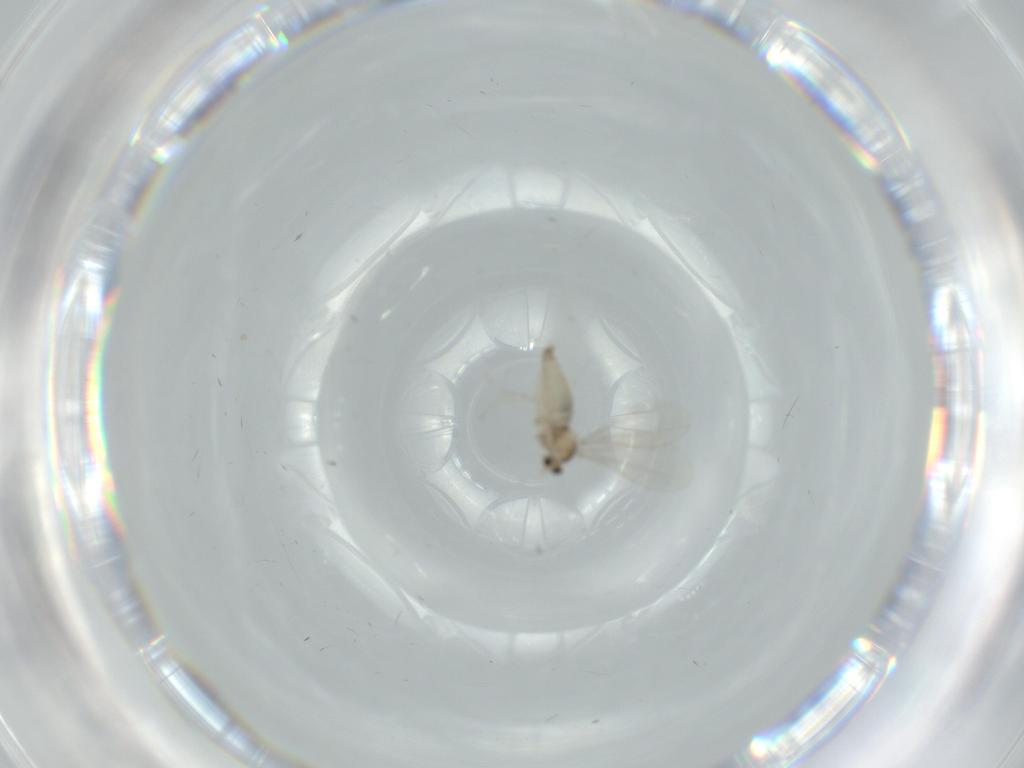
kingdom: Animalia
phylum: Arthropoda
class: Insecta
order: Diptera
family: Cecidomyiidae
